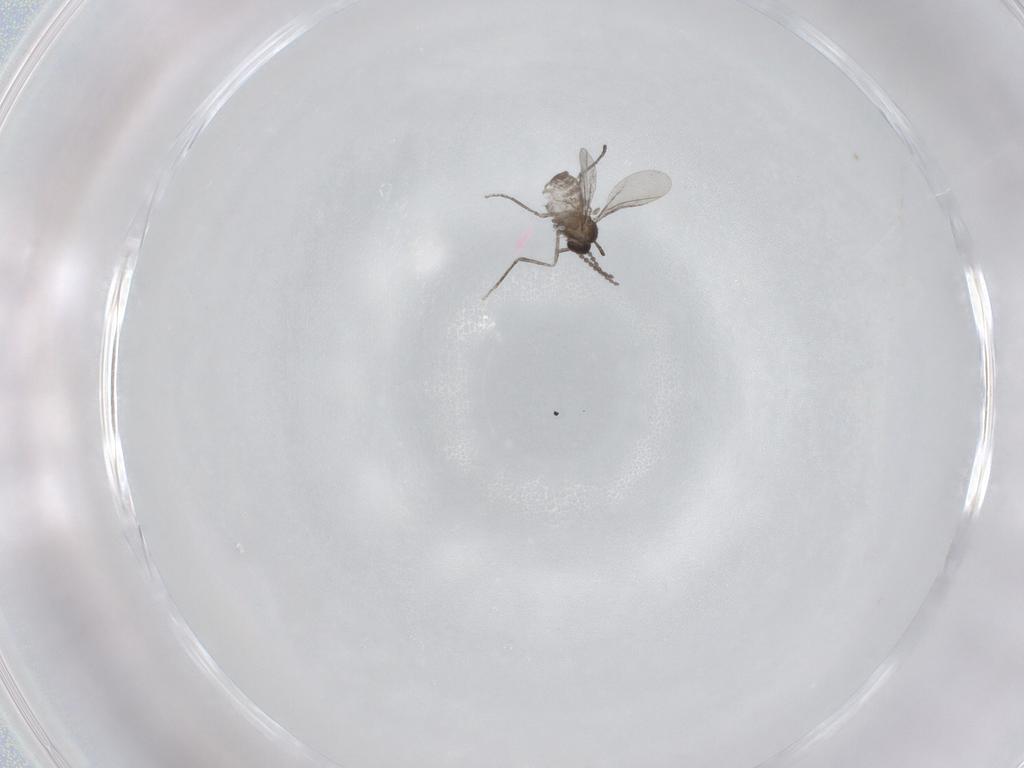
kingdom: Animalia
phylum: Arthropoda
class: Insecta
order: Diptera
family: Cecidomyiidae
